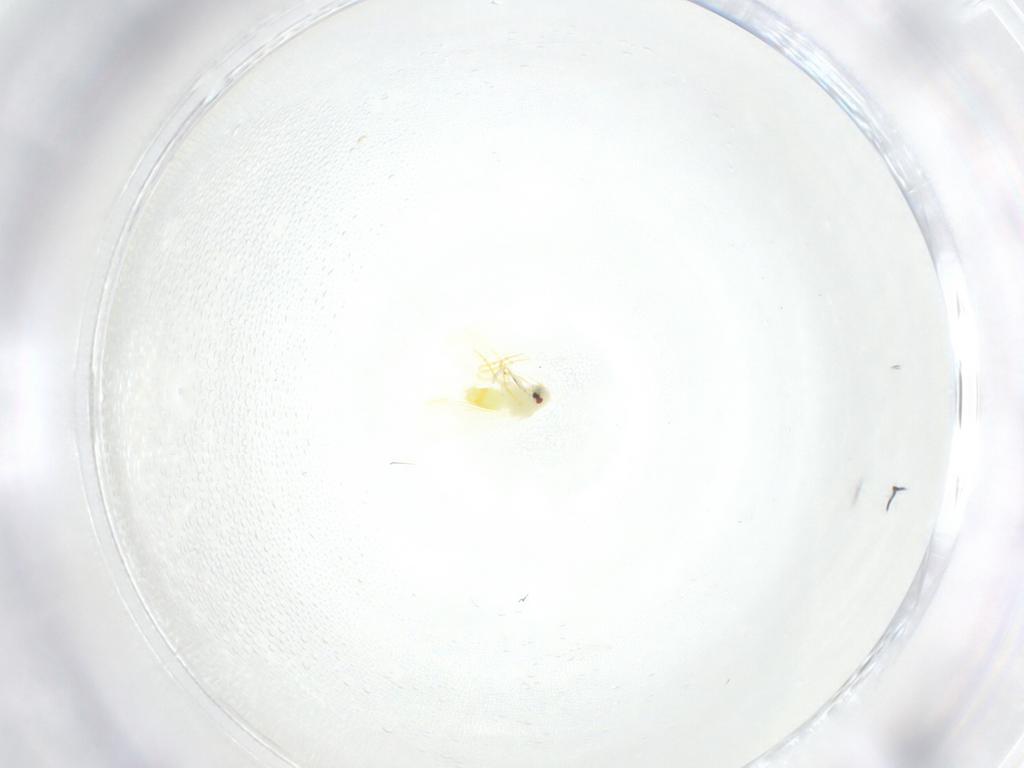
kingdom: Animalia
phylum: Arthropoda
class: Insecta
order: Hemiptera
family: Aleyrodidae
